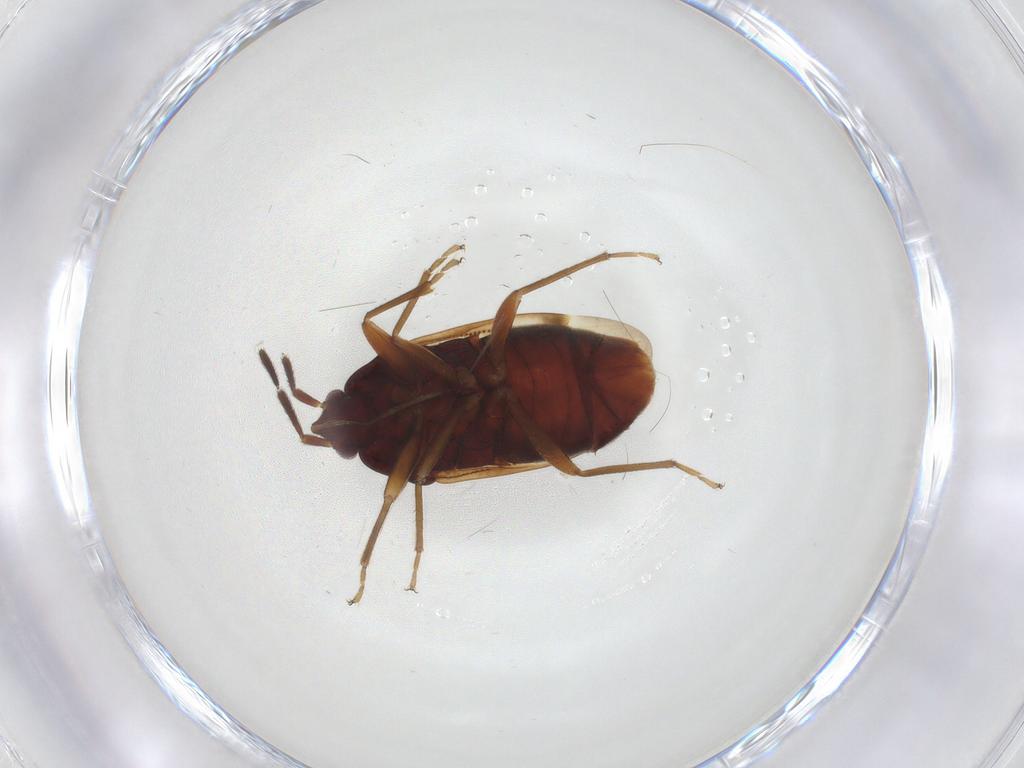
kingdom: Animalia
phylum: Arthropoda
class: Insecta
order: Hemiptera
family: Rhyparochromidae
